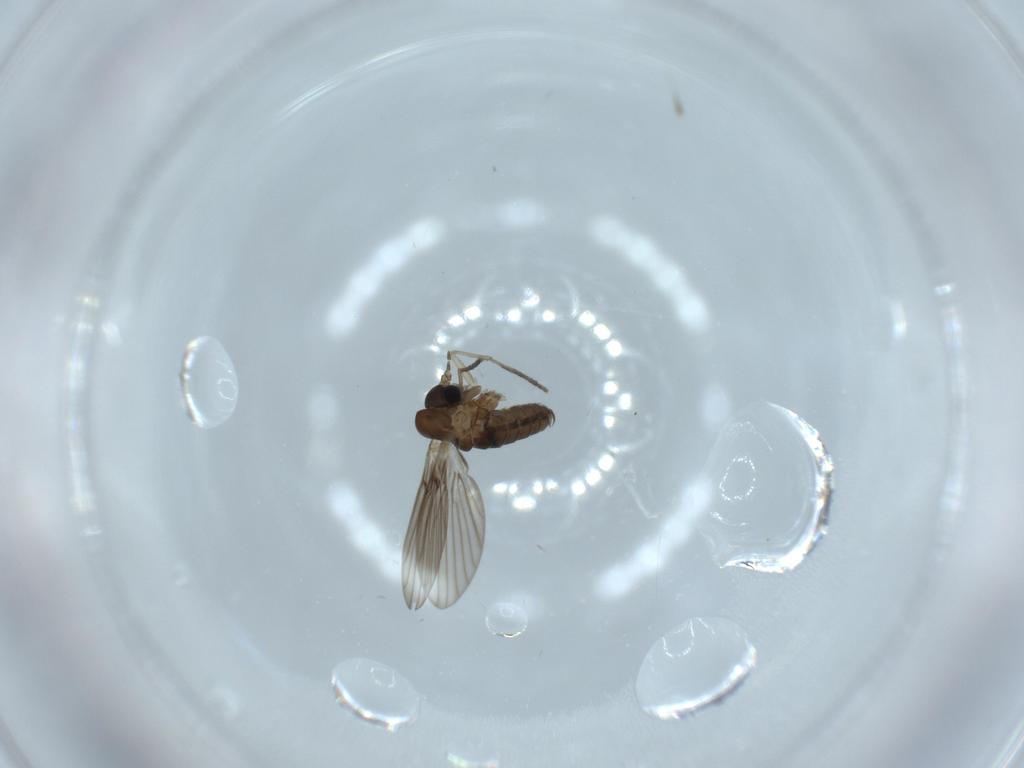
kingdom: Animalia
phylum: Arthropoda
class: Insecta
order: Diptera
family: Psychodidae
